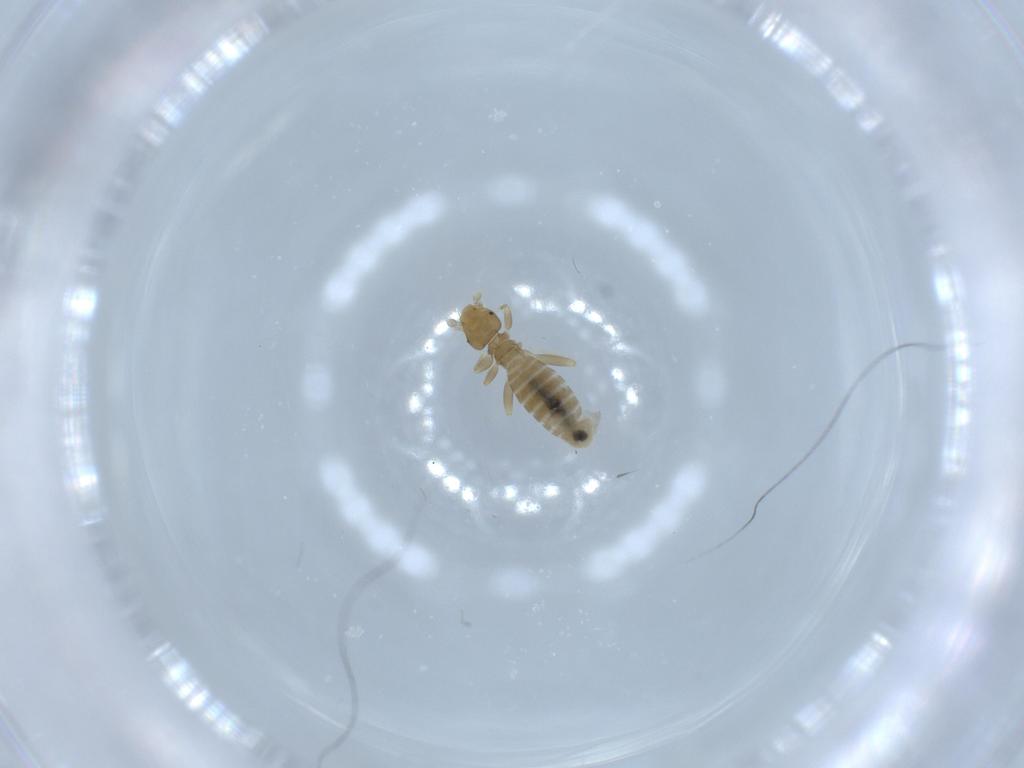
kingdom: Animalia
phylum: Arthropoda
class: Insecta
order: Psocodea
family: Liposcelididae
